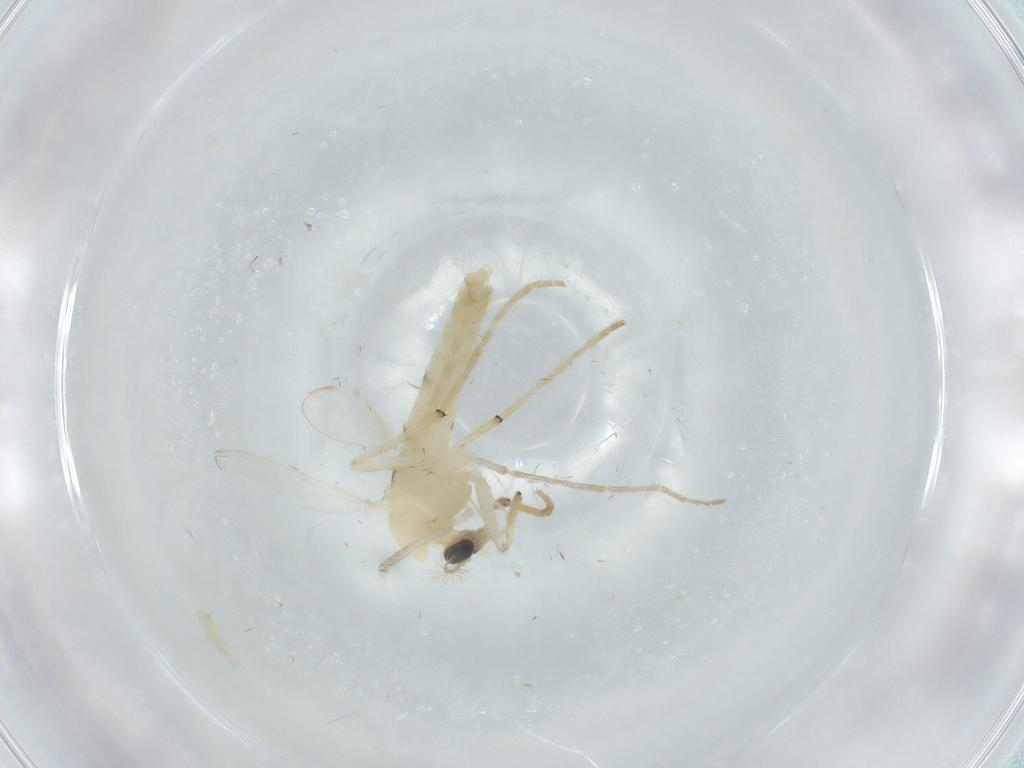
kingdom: Animalia
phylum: Arthropoda
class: Insecta
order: Diptera
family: Chironomidae
